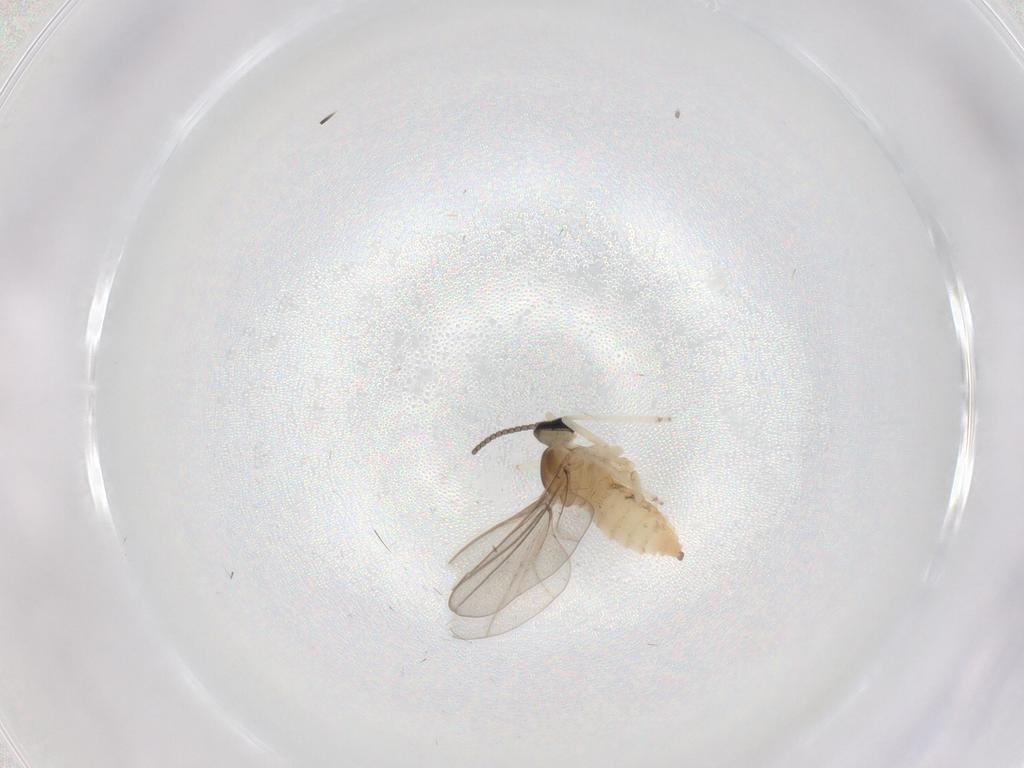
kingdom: Animalia
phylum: Arthropoda
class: Insecta
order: Diptera
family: Cecidomyiidae
